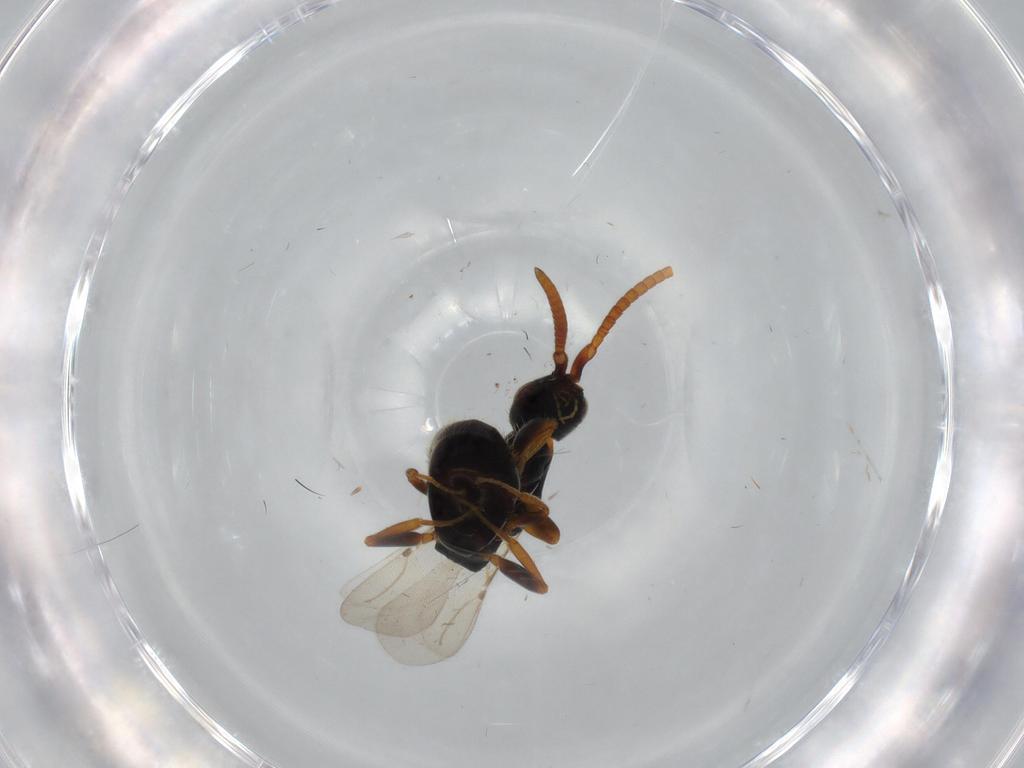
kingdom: Animalia
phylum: Arthropoda
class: Insecta
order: Hymenoptera
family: Bethylidae
